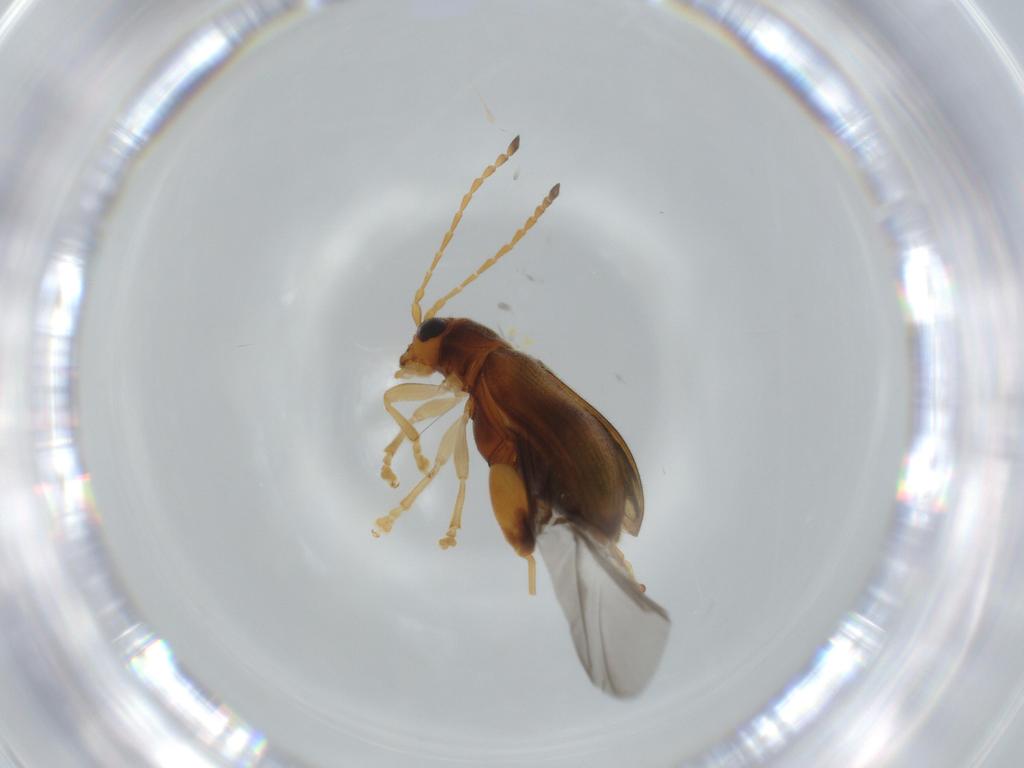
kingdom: Animalia
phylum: Arthropoda
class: Insecta
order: Coleoptera
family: Chrysomelidae
